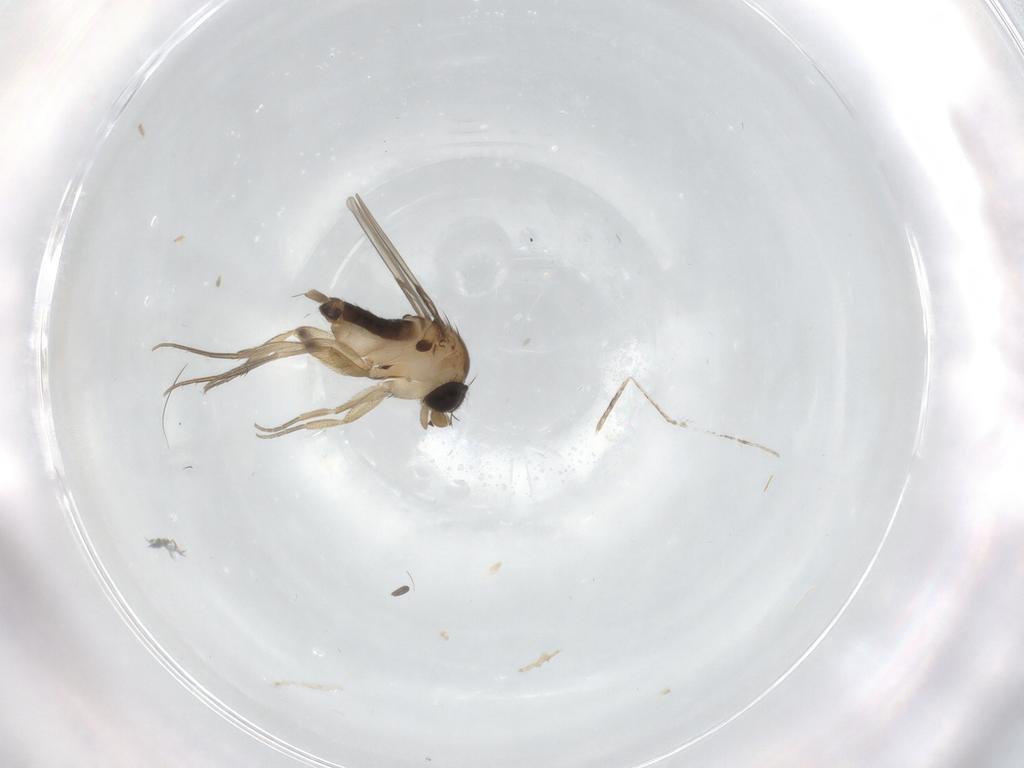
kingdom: Animalia
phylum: Arthropoda
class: Insecta
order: Diptera
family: Phoridae
